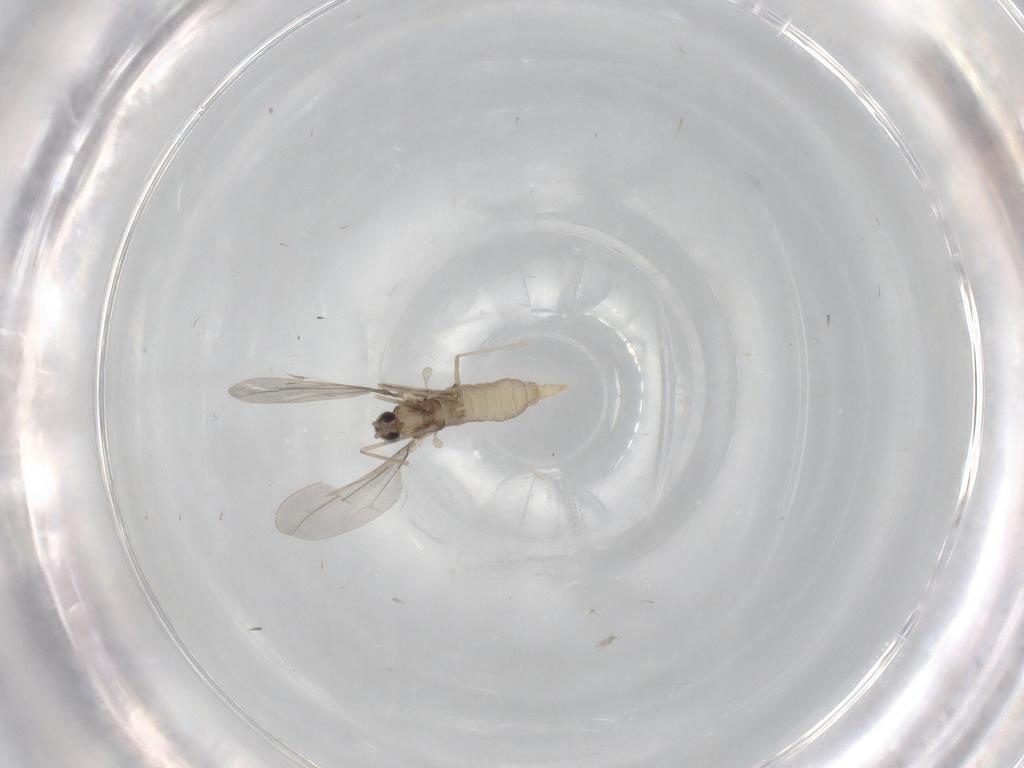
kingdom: Animalia
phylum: Arthropoda
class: Insecta
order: Diptera
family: Cecidomyiidae
